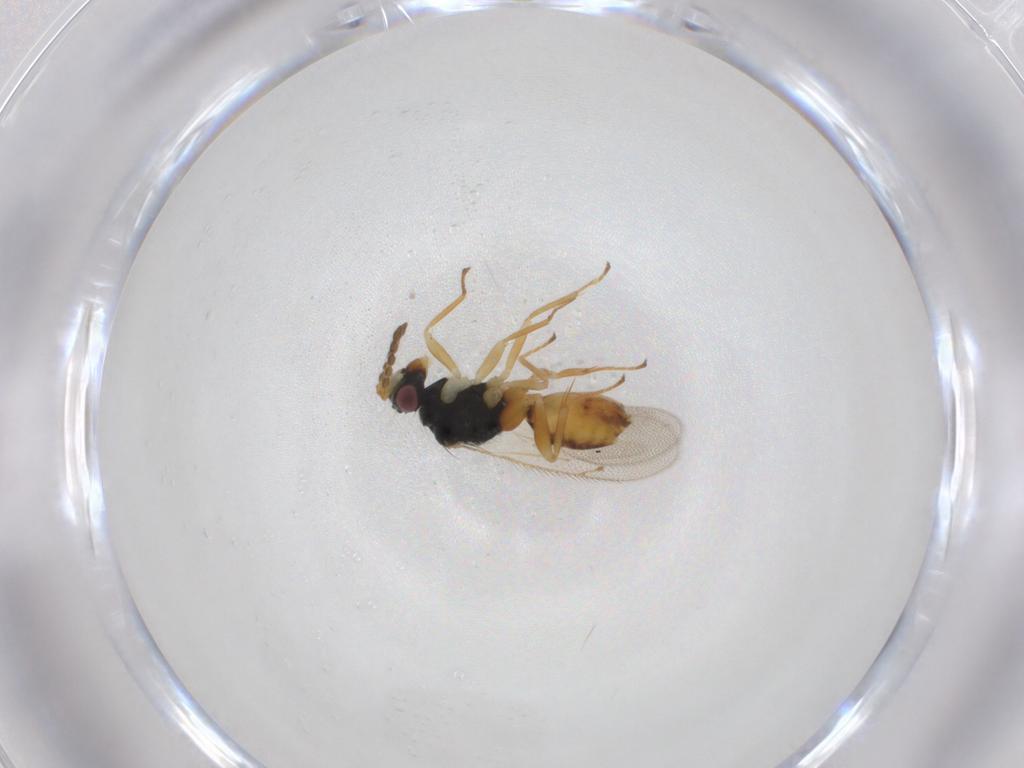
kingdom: Animalia
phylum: Arthropoda
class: Insecta
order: Hymenoptera
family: Eulophidae
